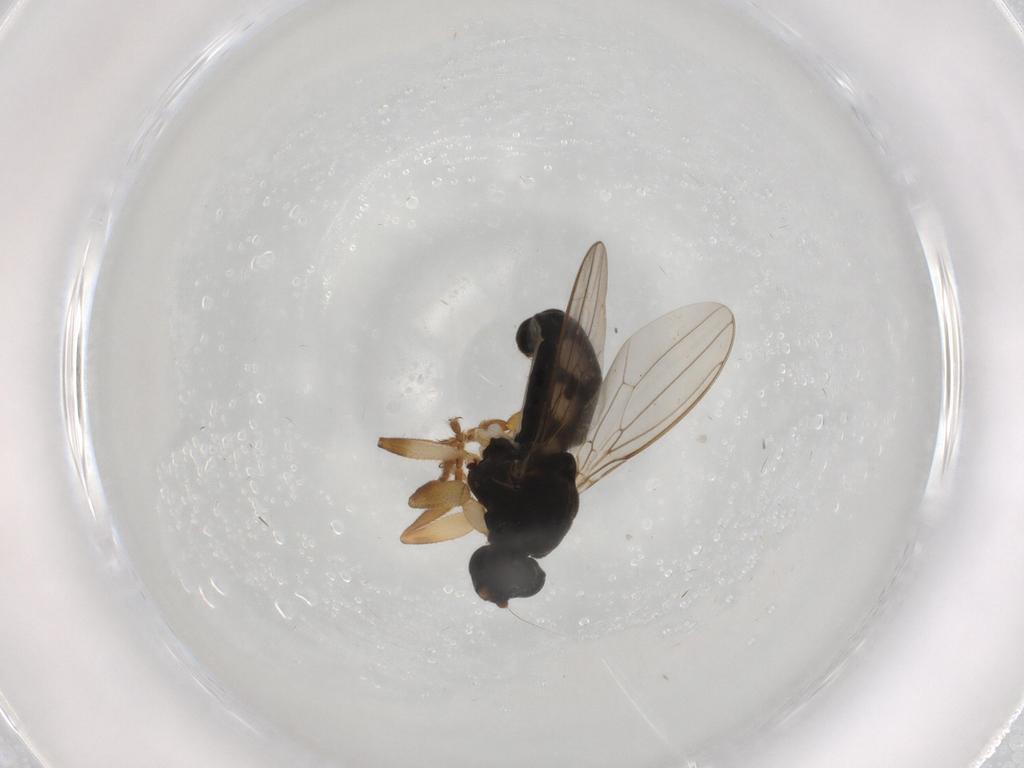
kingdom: Animalia
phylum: Arthropoda
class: Insecta
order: Diptera
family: Sphaeroceridae
